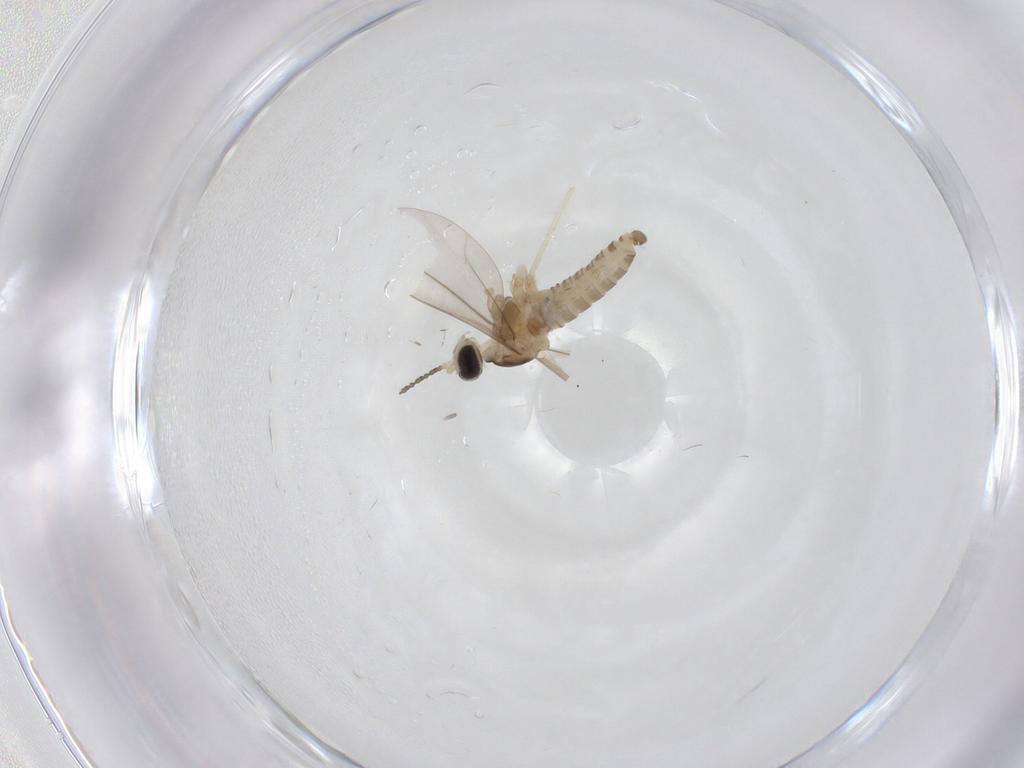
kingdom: Animalia
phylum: Arthropoda
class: Insecta
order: Diptera
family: Cecidomyiidae
